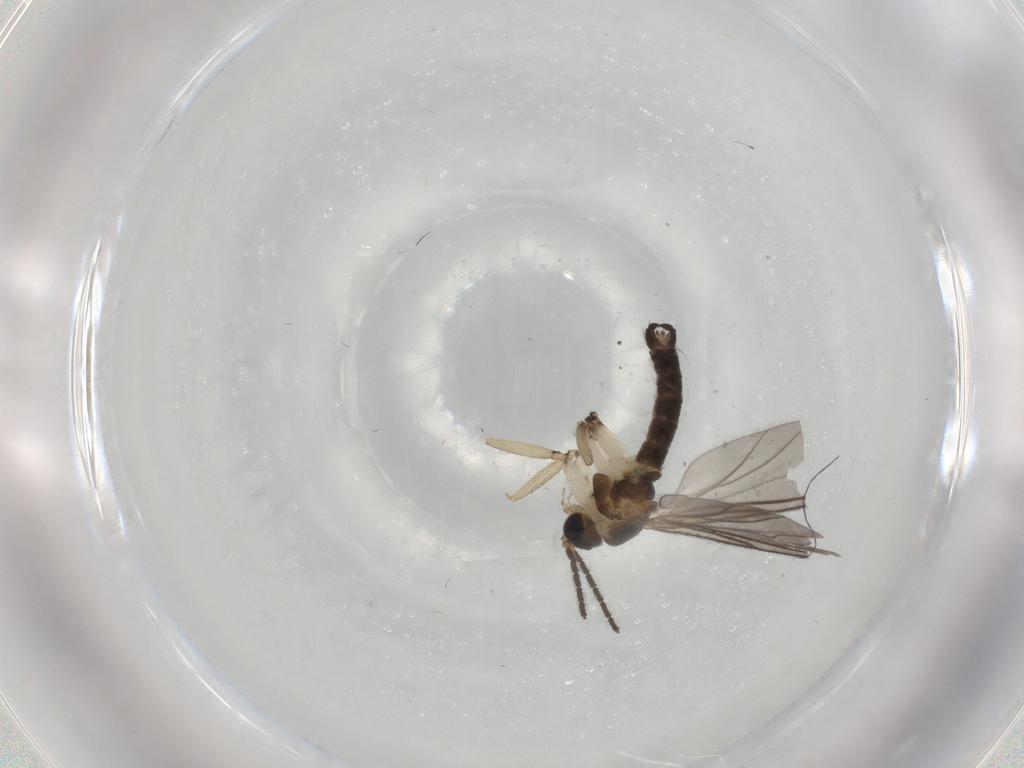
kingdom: Animalia
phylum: Arthropoda
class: Insecta
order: Diptera
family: Sciaridae
